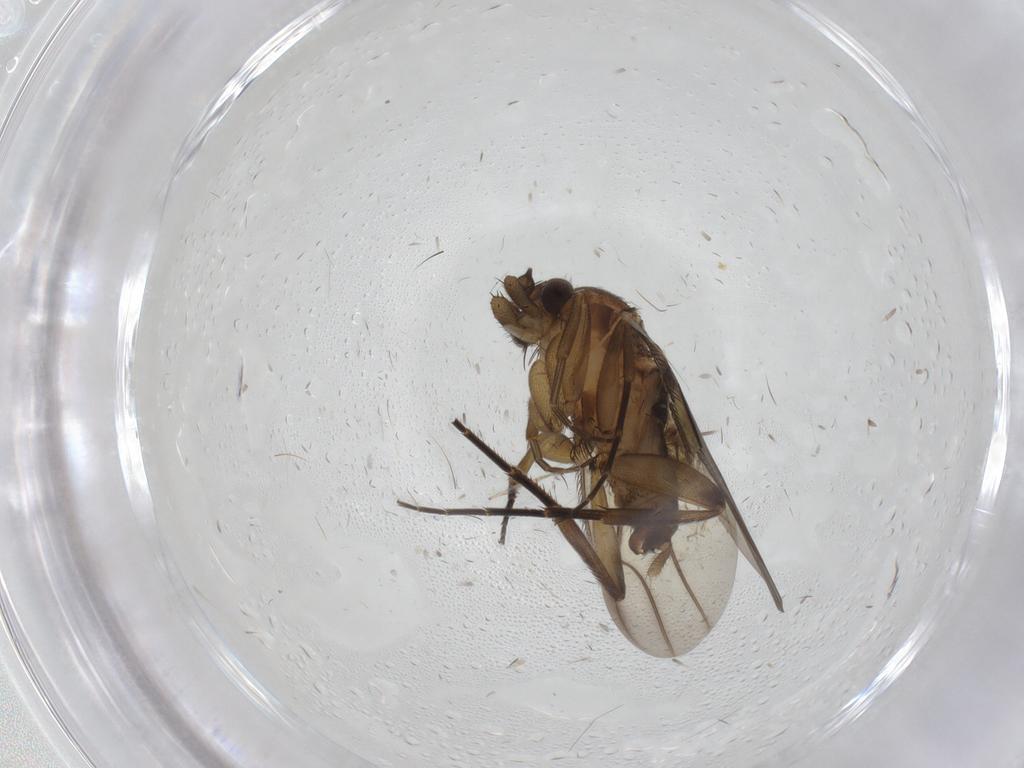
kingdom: Animalia
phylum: Arthropoda
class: Insecta
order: Diptera
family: Phoridae
